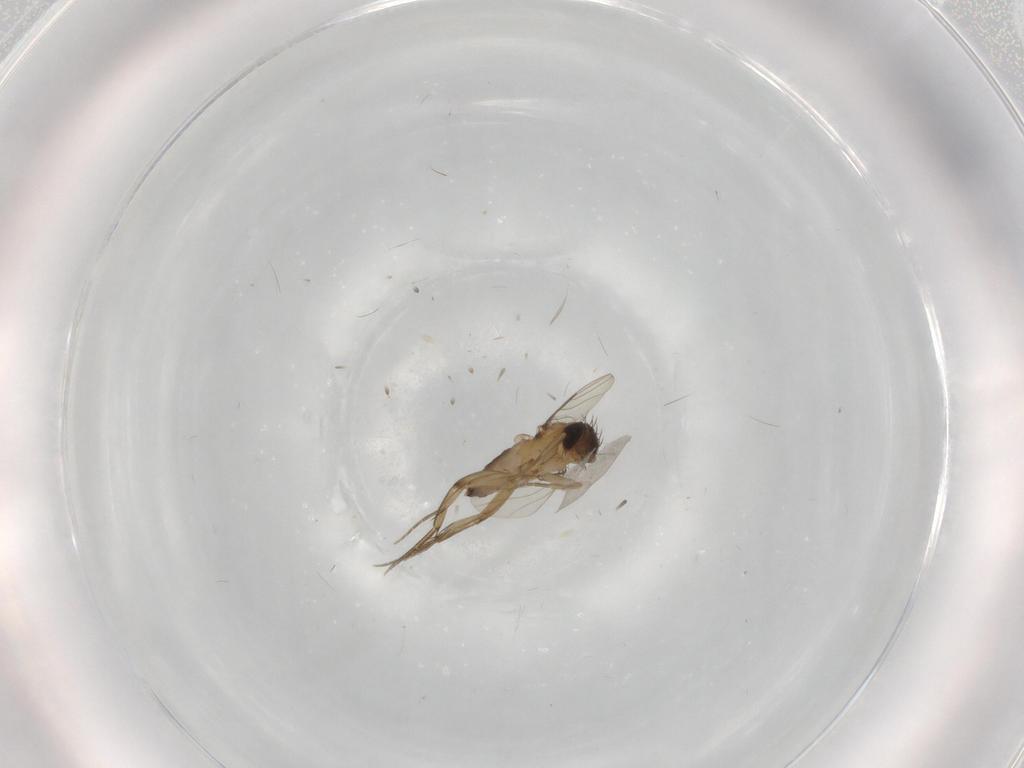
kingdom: Animalia
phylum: Arthropoda
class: Insecta
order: Diptera
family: Phoridae
